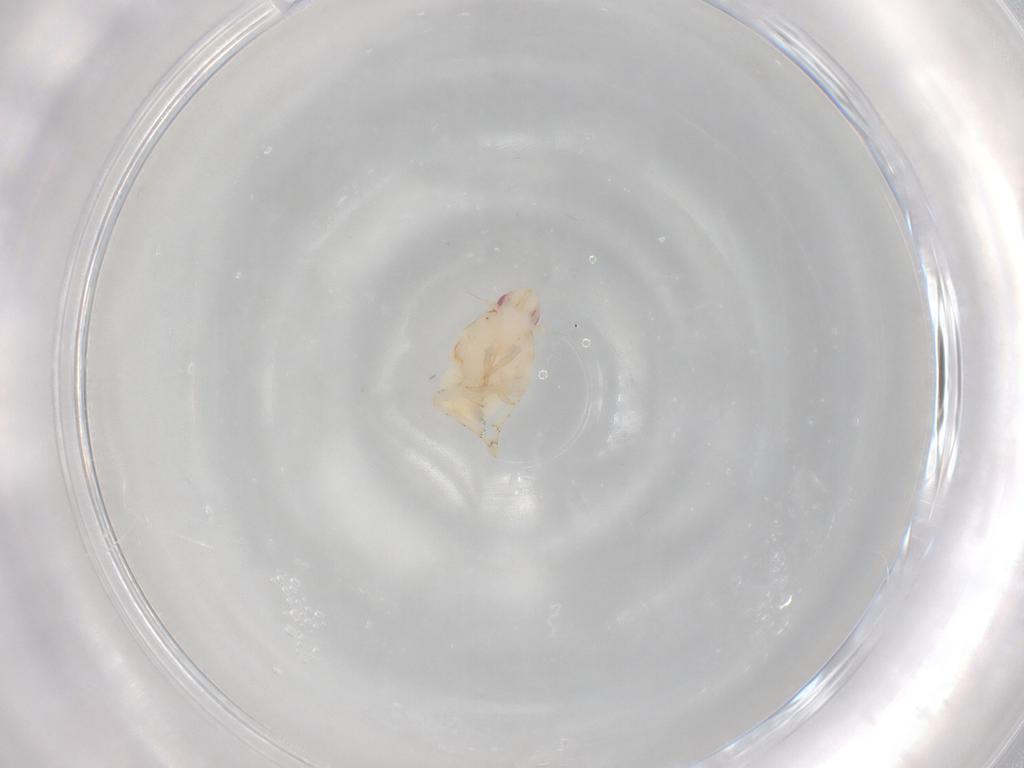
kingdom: Animalia
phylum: Arthropoda
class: Insecta
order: Hemiptera
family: Flatidae
